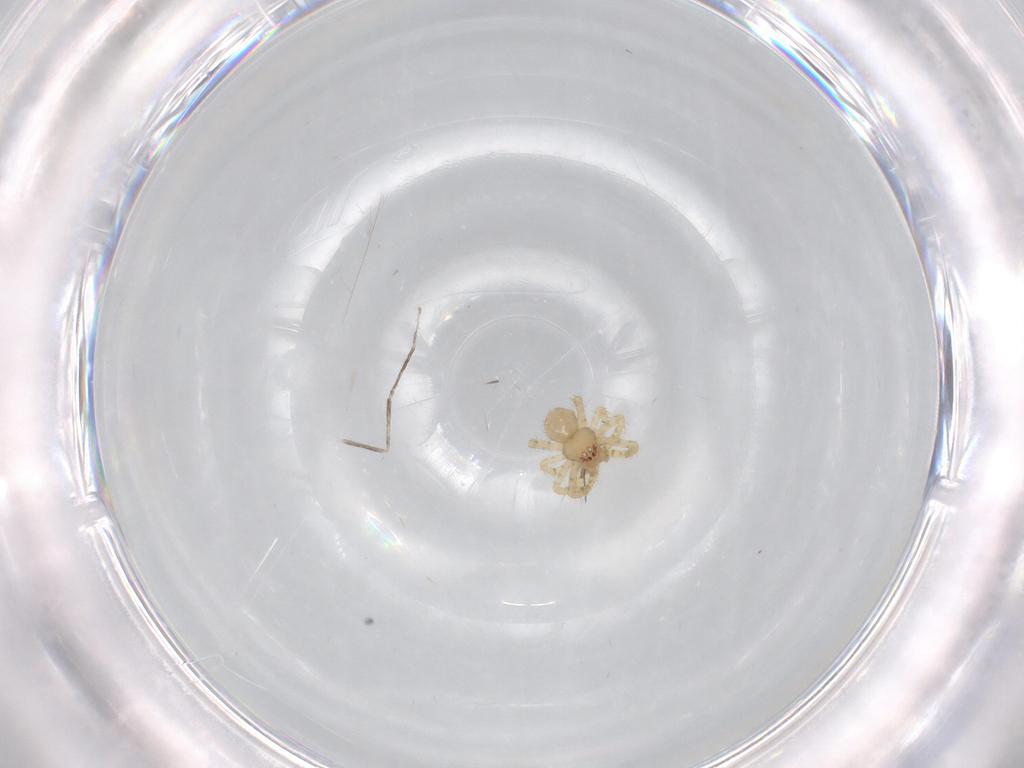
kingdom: Animalia
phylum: Arthropoda
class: Arachnida
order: Araneae
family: Theridiidae
